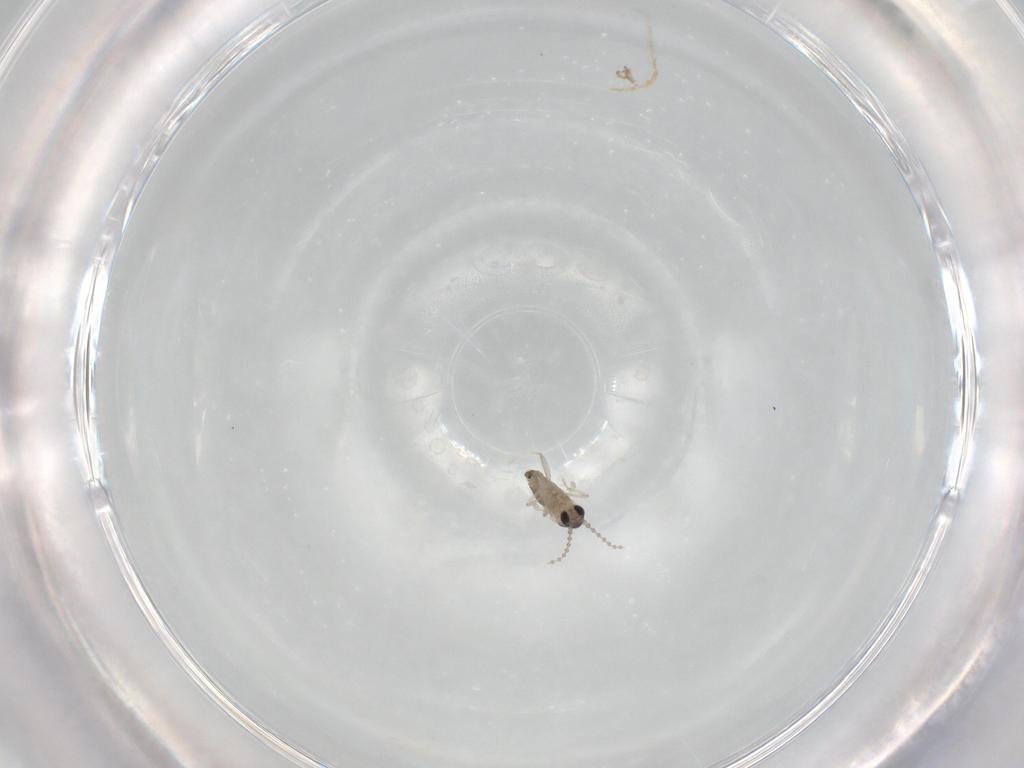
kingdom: Animalia
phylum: Arthropoda
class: Insecta
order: Diptera
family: Cecidomyiidae
